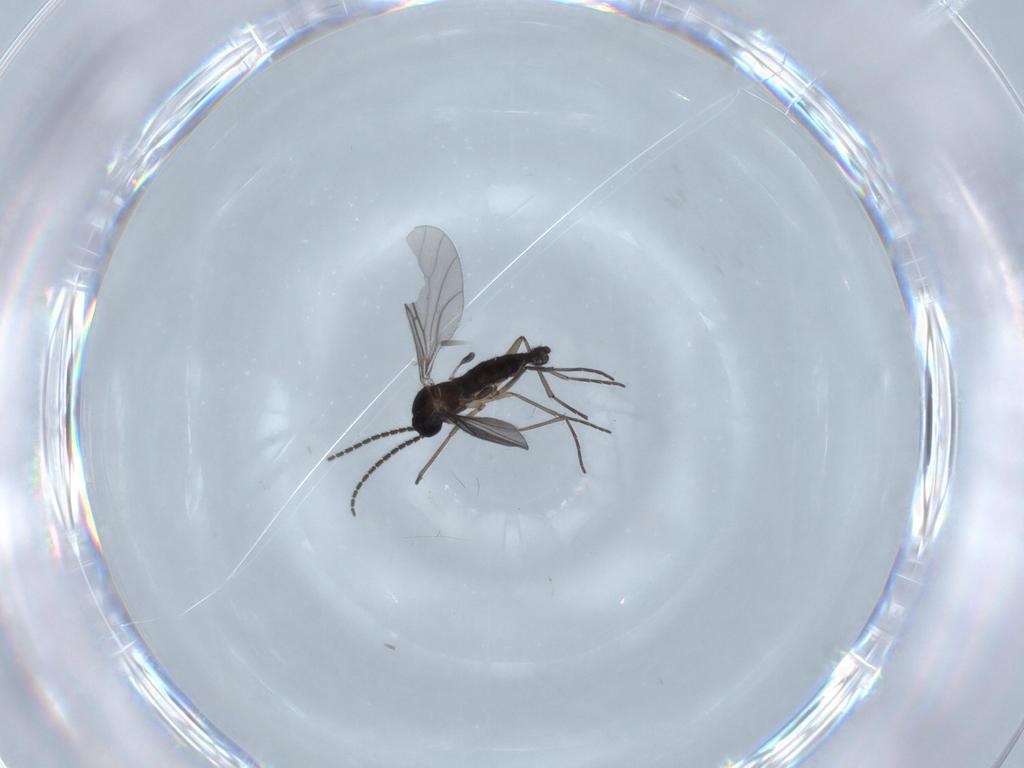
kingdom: Animalia
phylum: Arthropoda
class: Insecta
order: Diptera
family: Sciaridae
